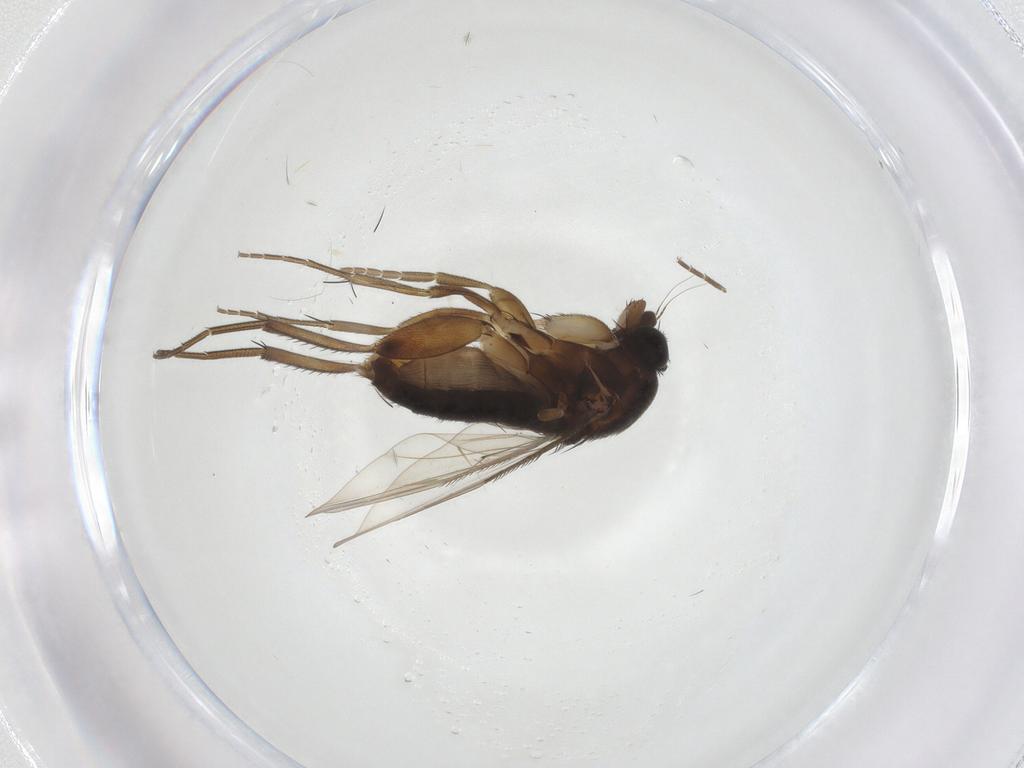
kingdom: Animalia
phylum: Arthropoda
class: Insecta
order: Diptera
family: Phoridae
